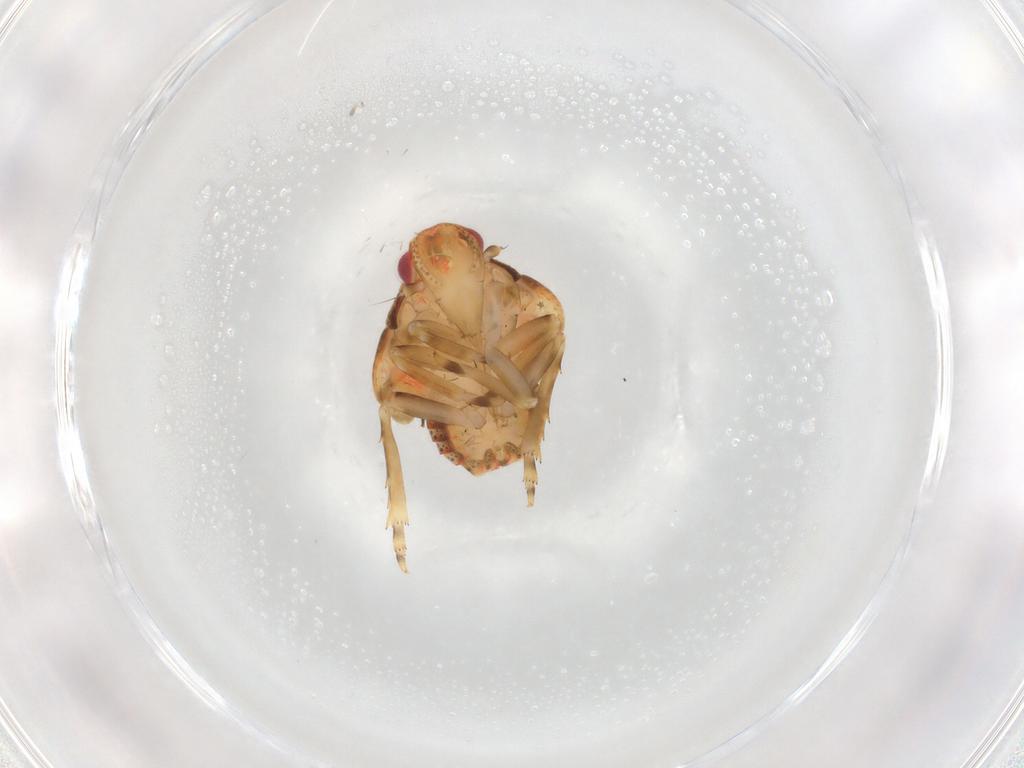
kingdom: Animalia
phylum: Arthropoda
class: Insecta
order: Hemiptera
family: Flatidae
